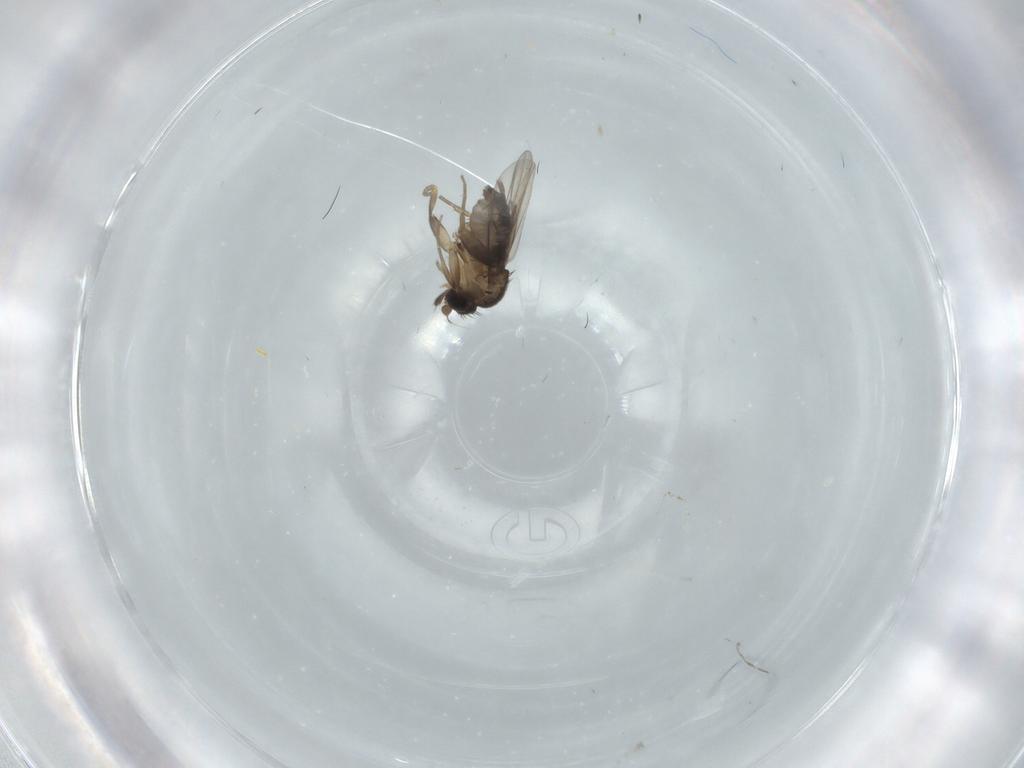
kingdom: Animalia
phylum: Arthropoda
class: Insecta
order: Diptera
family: Limoniidae
